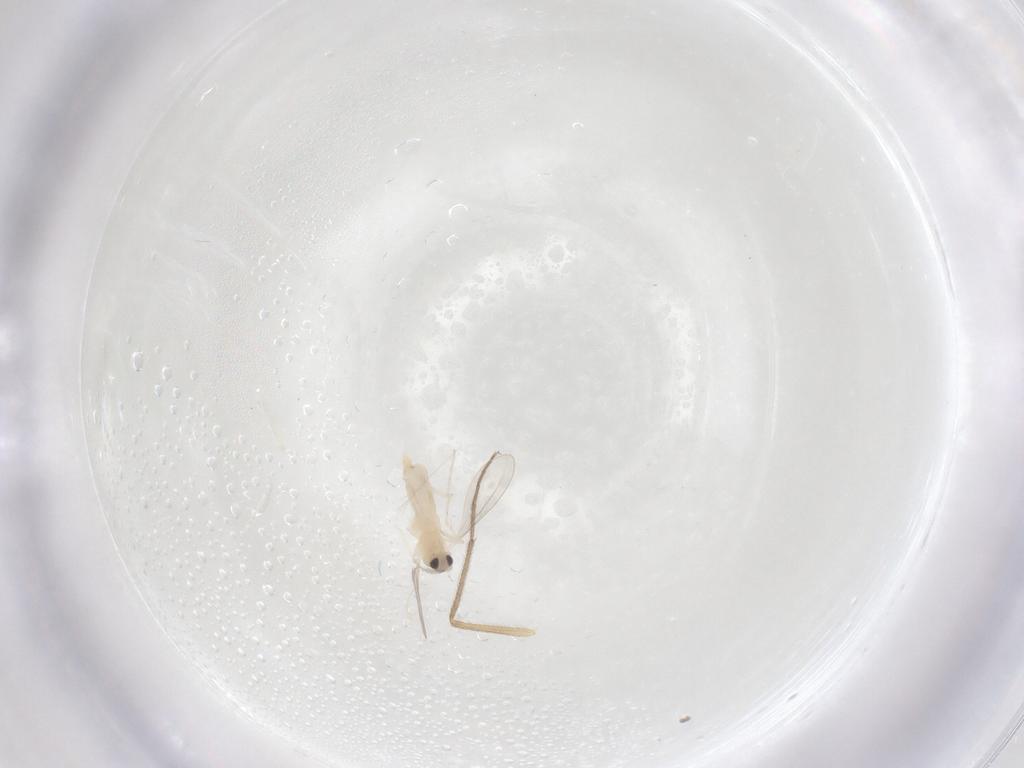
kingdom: Animalia
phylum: Arthropoda
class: Insecta
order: Diptera
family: Cecidomyiidae
